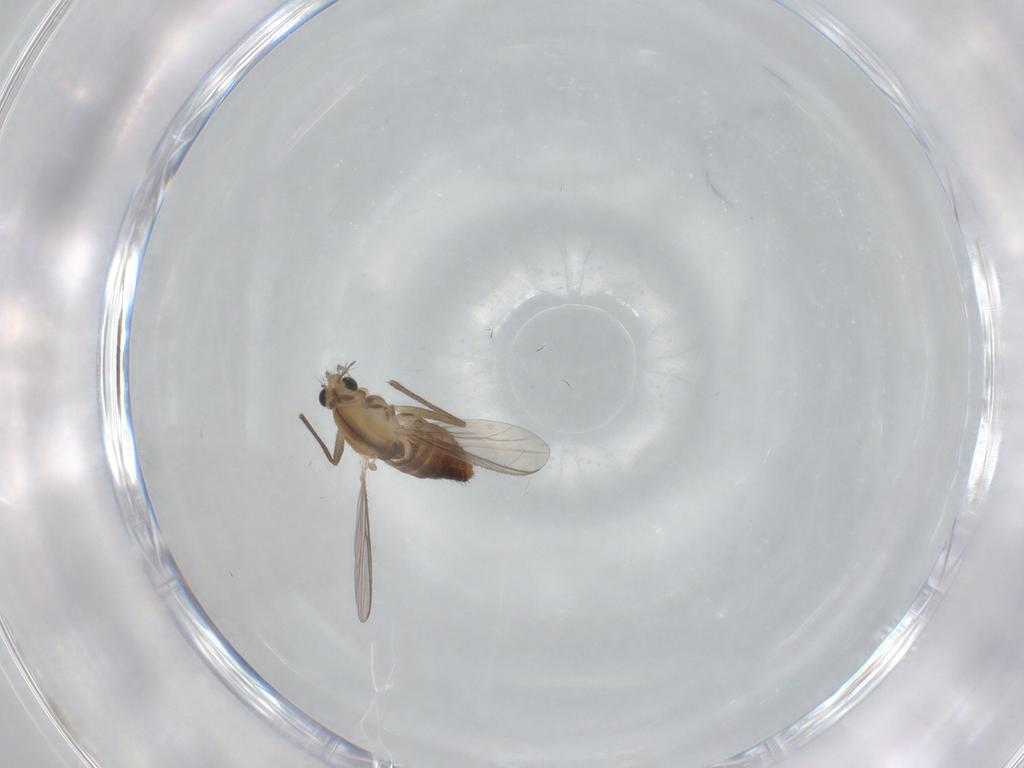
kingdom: Animalia
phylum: Arthropoda
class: Insecta
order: Diptera
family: Chironomidae
